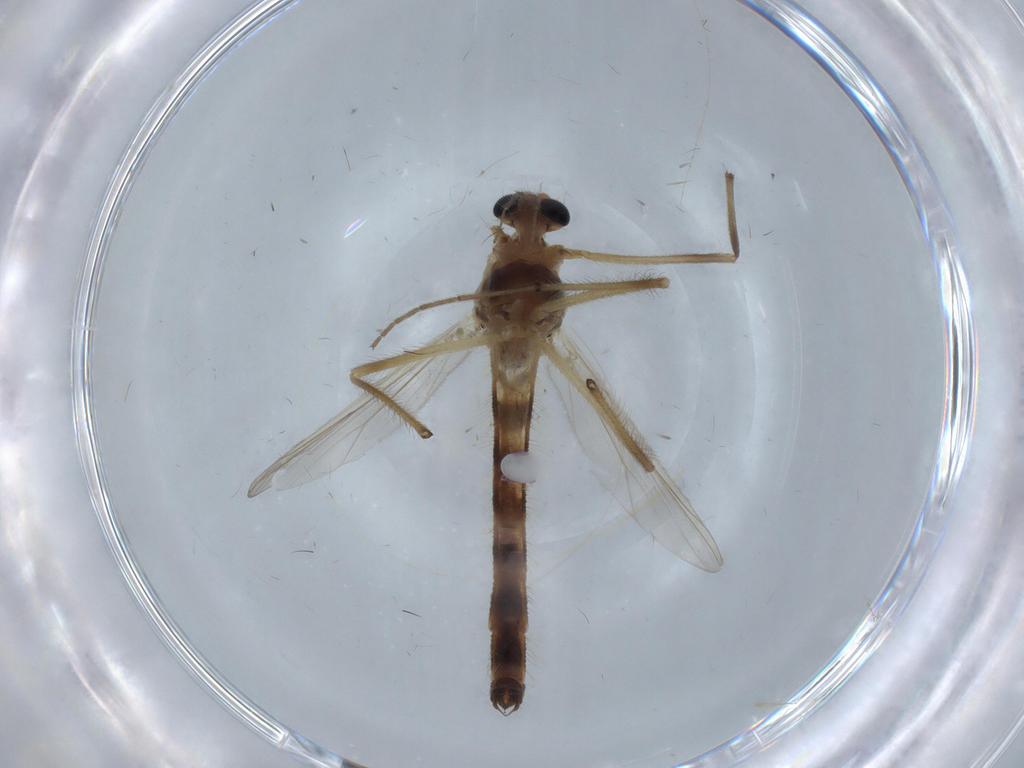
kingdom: Animalia
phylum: Arthropoda
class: Insecta
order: Diptera
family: Chironomidae
